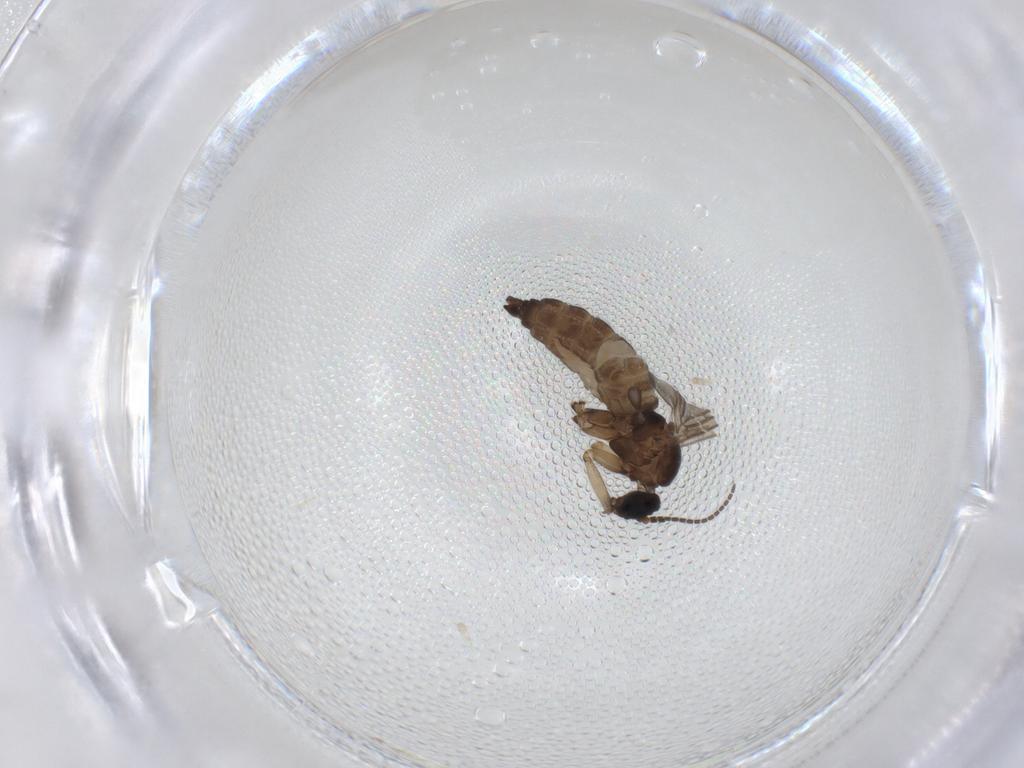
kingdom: Animalia
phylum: Arthropoda
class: Insecta
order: Diptera
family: Sciaridae
